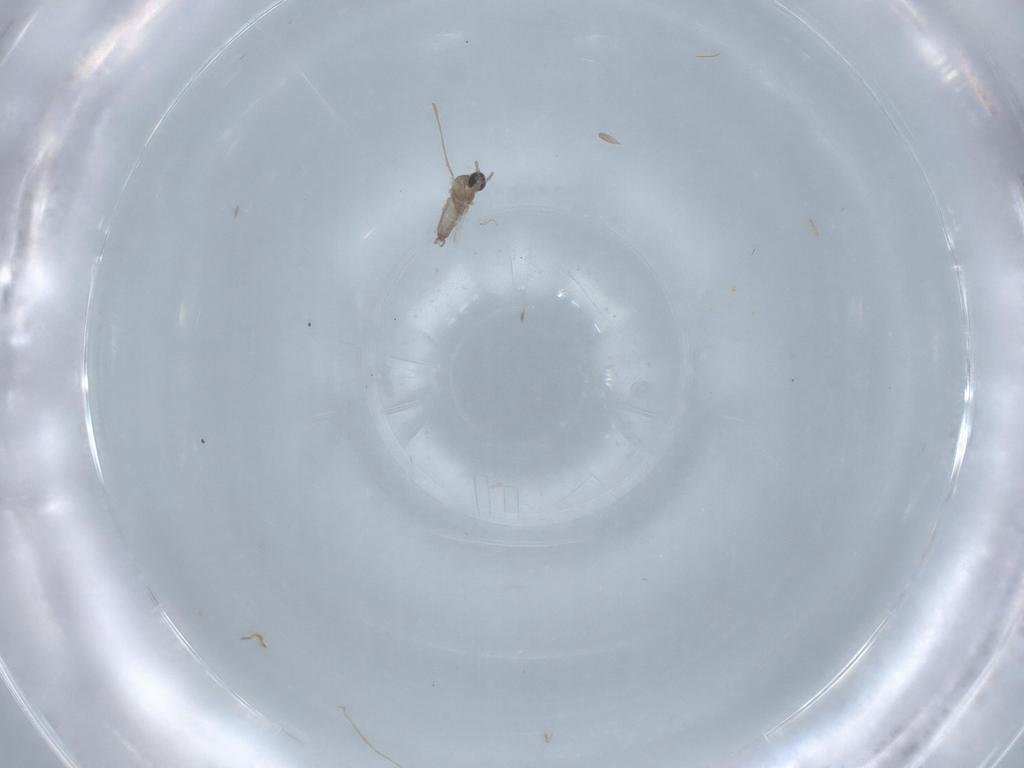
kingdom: Animalia
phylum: Arthropoda
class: Insecta
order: Diptera
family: Cecidomyiidae
